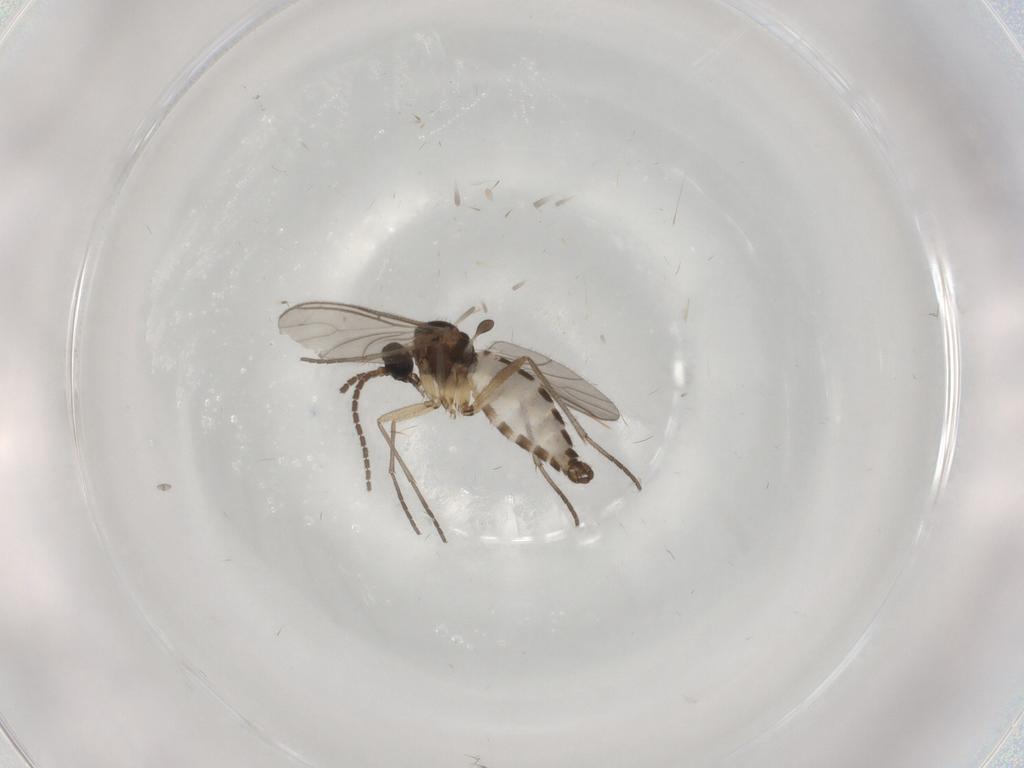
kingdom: Animalia
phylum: Arthropoda
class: Insecta
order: Diptera
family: Sciaridae
